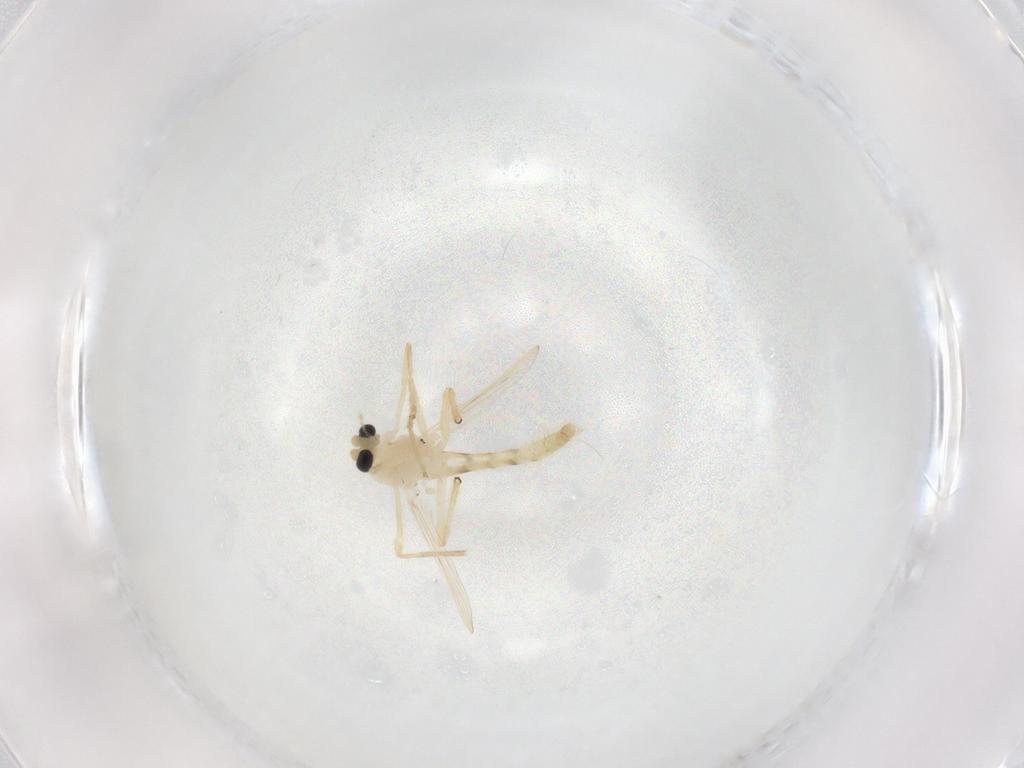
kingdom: Animalia
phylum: Arthropoda
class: Insecta
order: Diptera
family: Chironomidae
